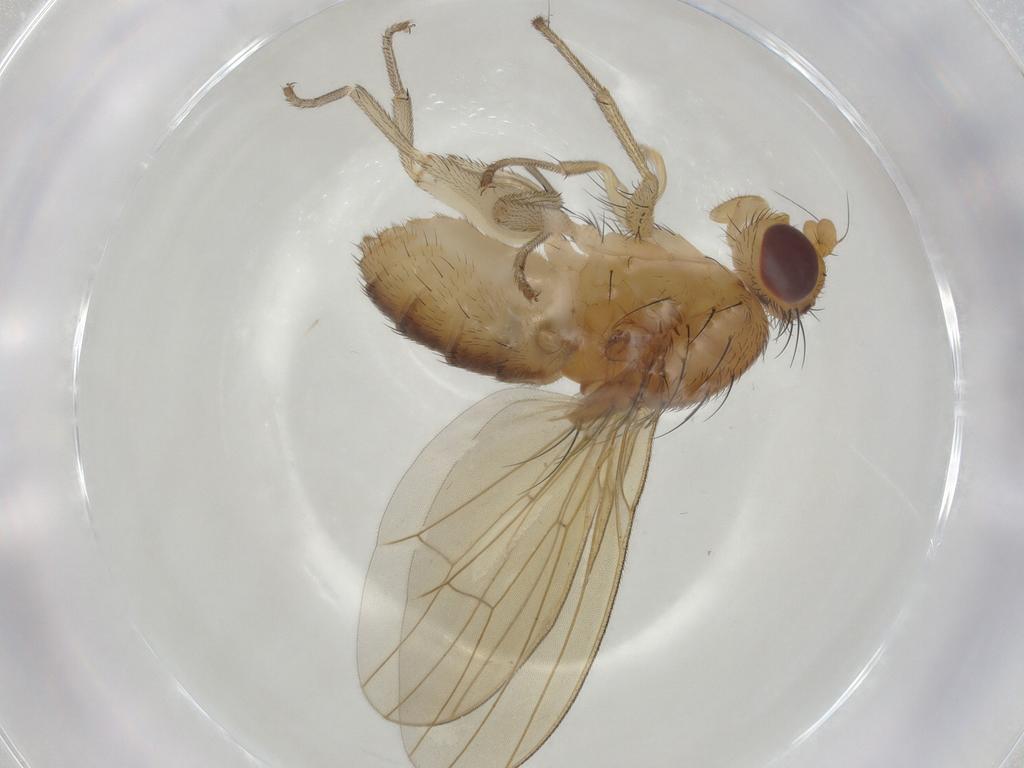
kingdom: Animalia
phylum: Arthropoda
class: Insecta
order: Diptera
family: Lauxaniidae
